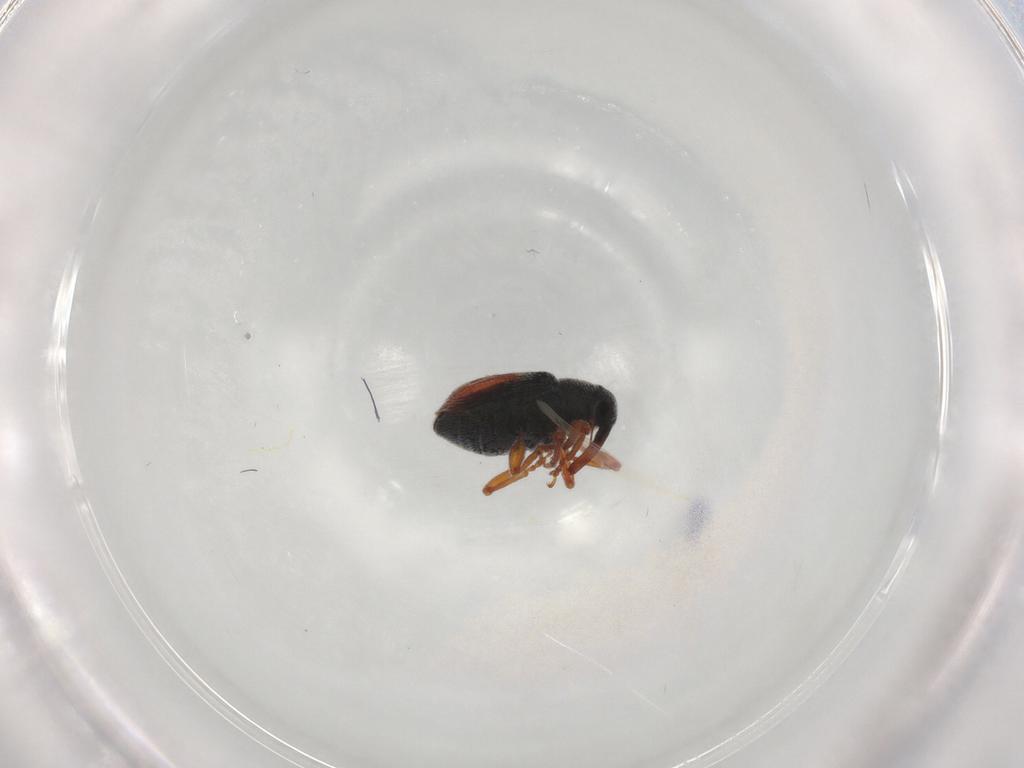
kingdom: Animalia
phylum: Arthropoda
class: Insecta
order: Coleoptera
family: Curculionidae
